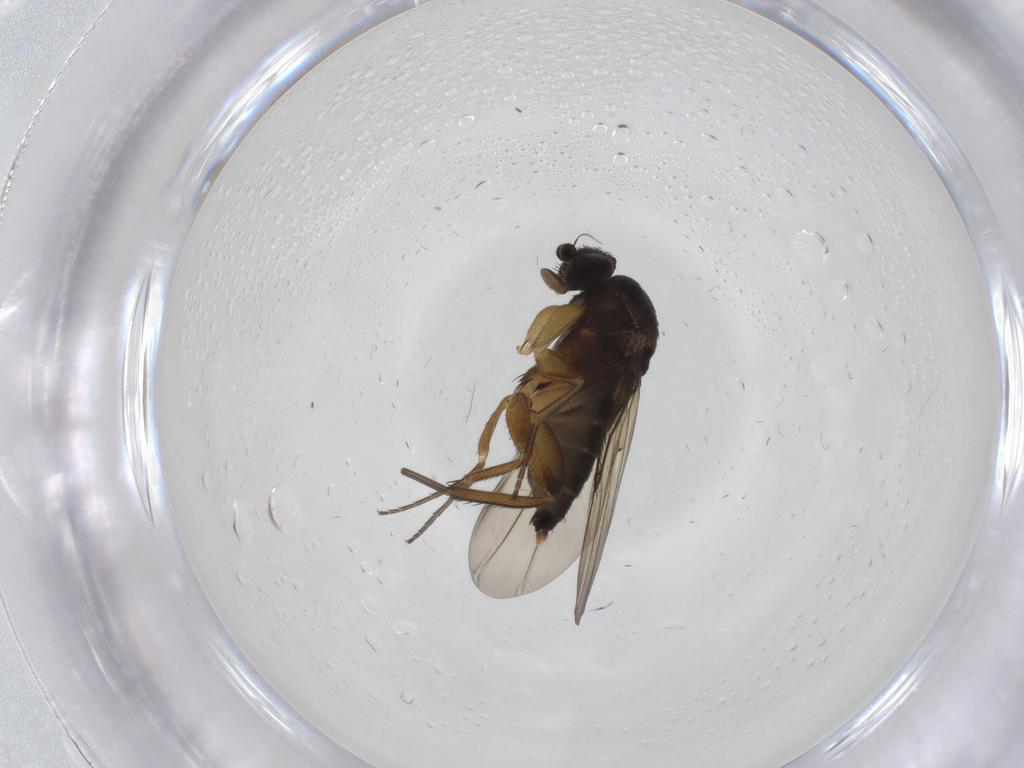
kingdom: Animalia
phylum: Arthropoda
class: Insecta
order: Diptera
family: Phoridae
